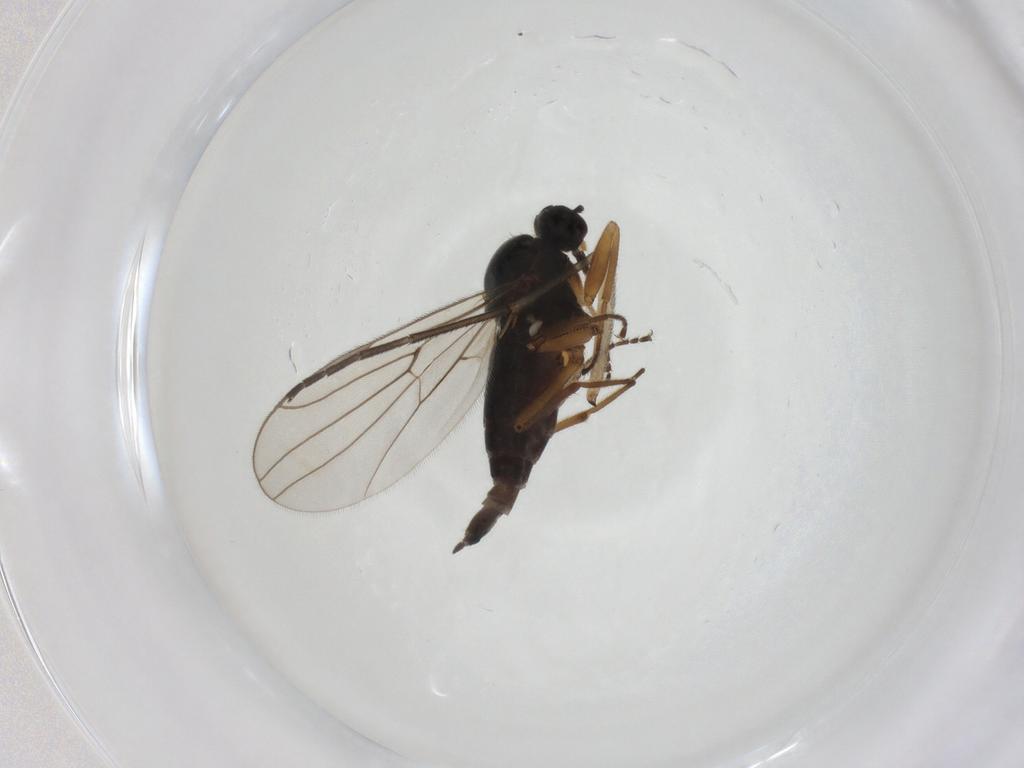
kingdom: Animalia
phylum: Arthropoda
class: Insecta
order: Diptera
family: Hybotidae
